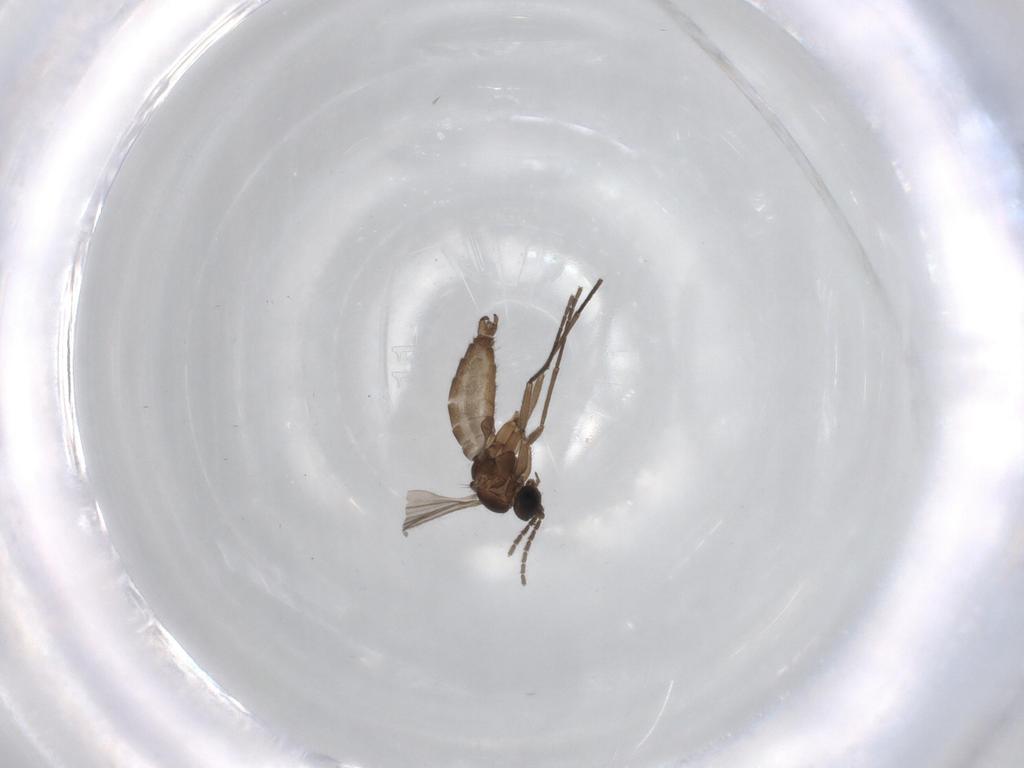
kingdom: Animalia
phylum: Arthropoda
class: Insecta
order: Diptera
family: Sciaridae
